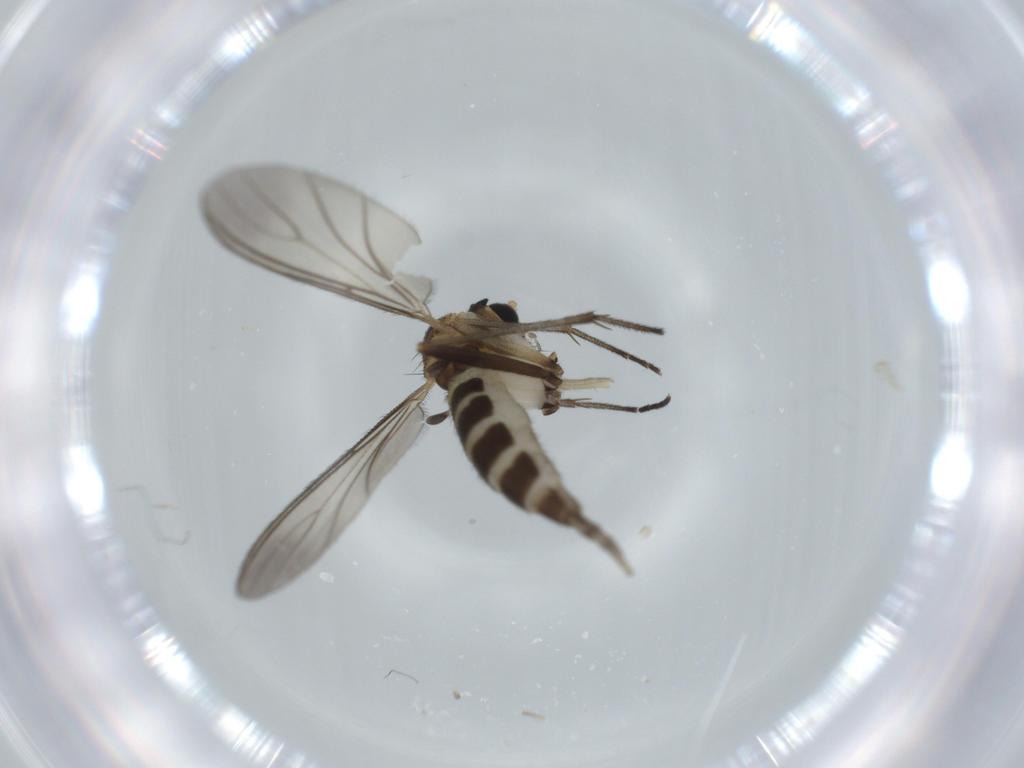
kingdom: Animalia
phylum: Arthropoda
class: Insecta
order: Diptera
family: Sciaridae
